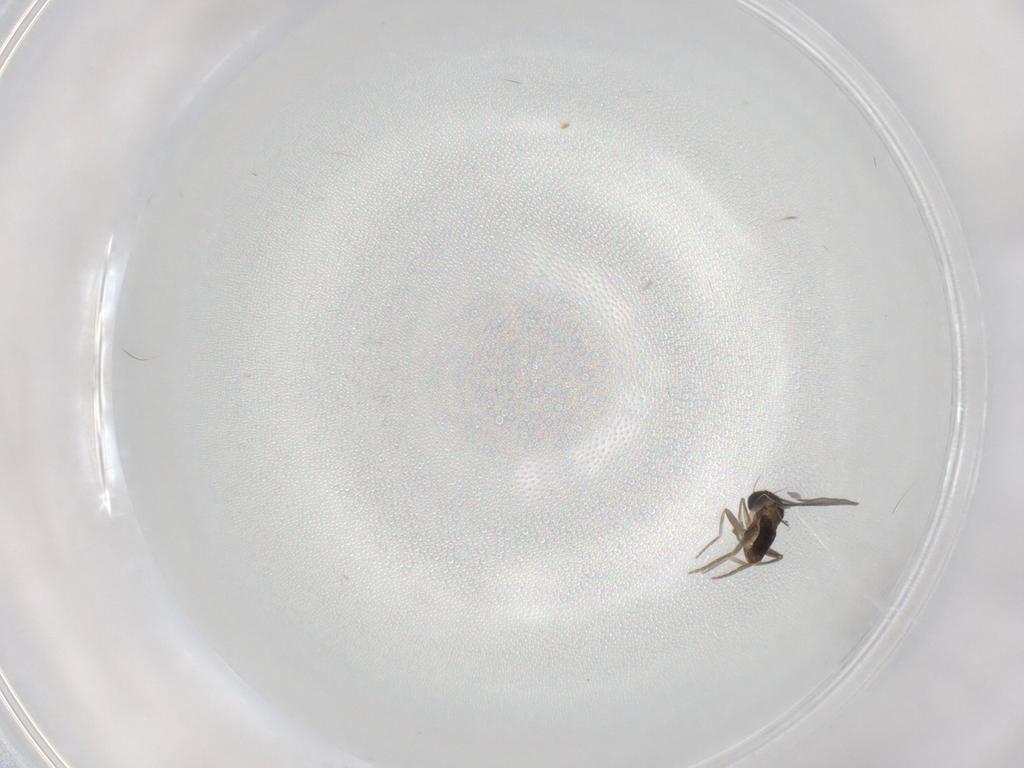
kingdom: Animalia
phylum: Arthropoda
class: Insecta
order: Diptera
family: Phoridae
